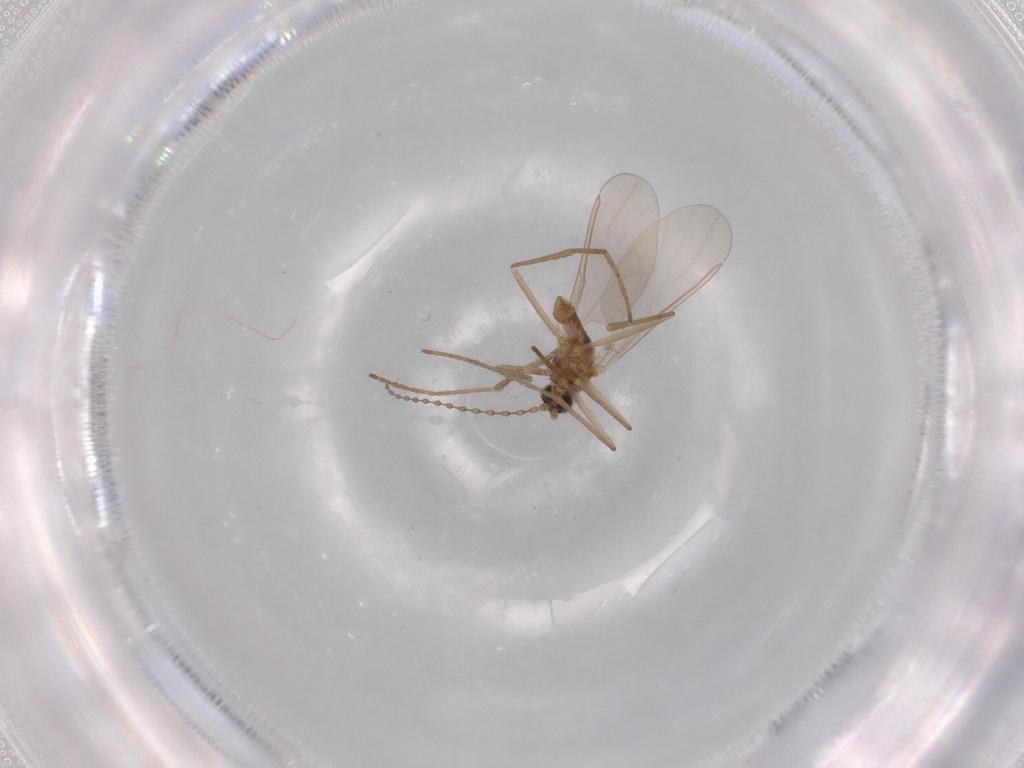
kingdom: Animalia
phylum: Arthropoda
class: Insecta
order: Diptera
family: Cecidomyiidae
